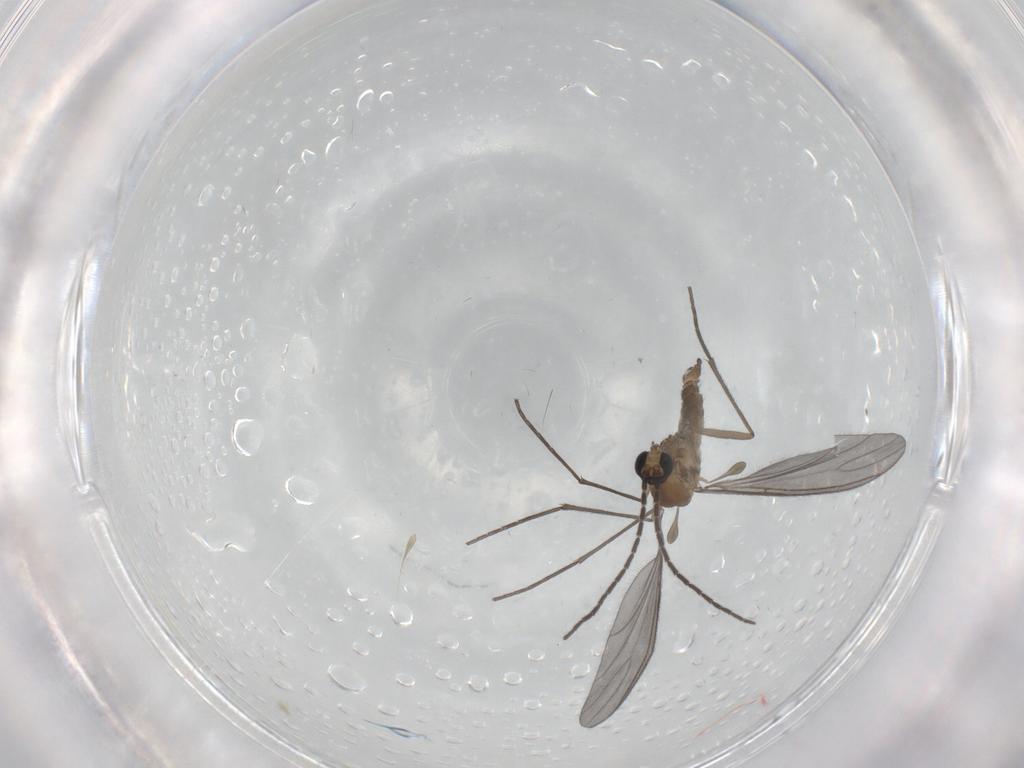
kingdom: Animalia
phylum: Arthropoda
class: Insecta
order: Diptera
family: Sciaridae
